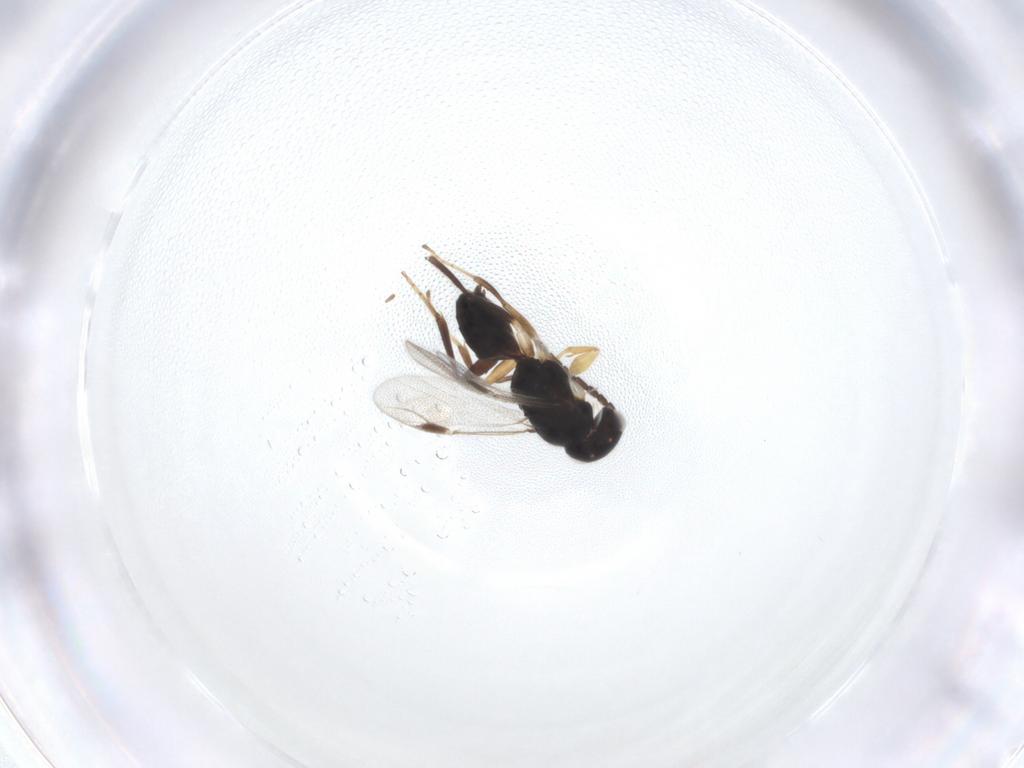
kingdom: Animalia
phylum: Arthropoda
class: Insecta
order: Hymenoptera
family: Dryinidae
